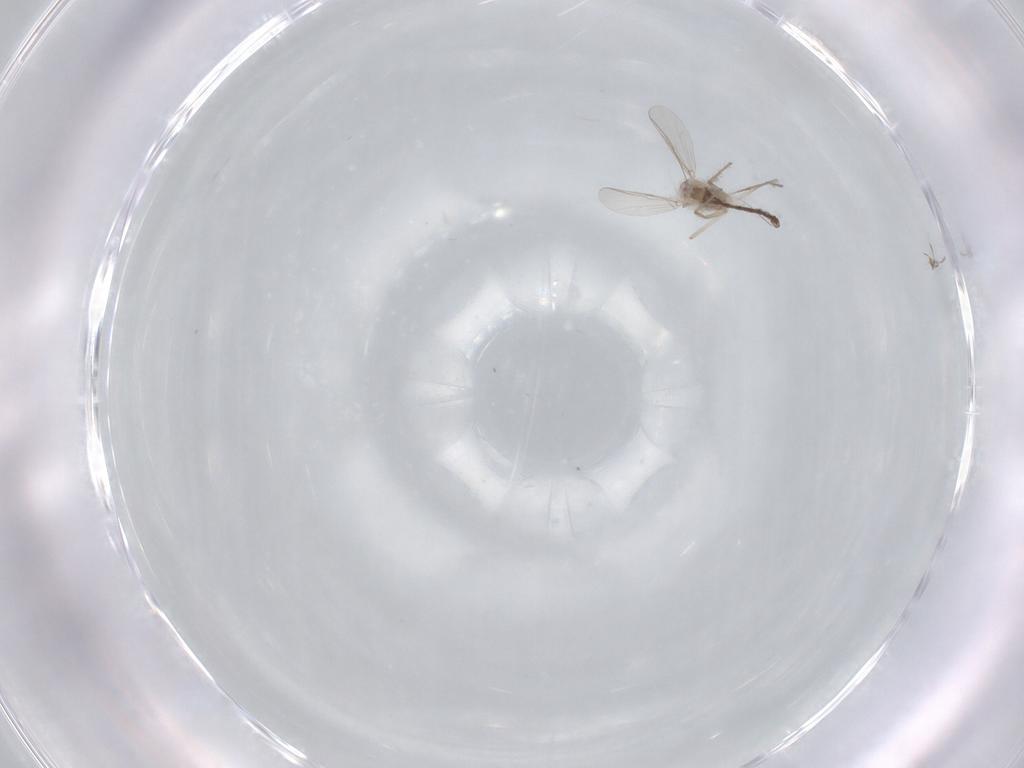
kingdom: Animalia
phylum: Arthropoda
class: Insecta
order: Diptera
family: Chironomidae
